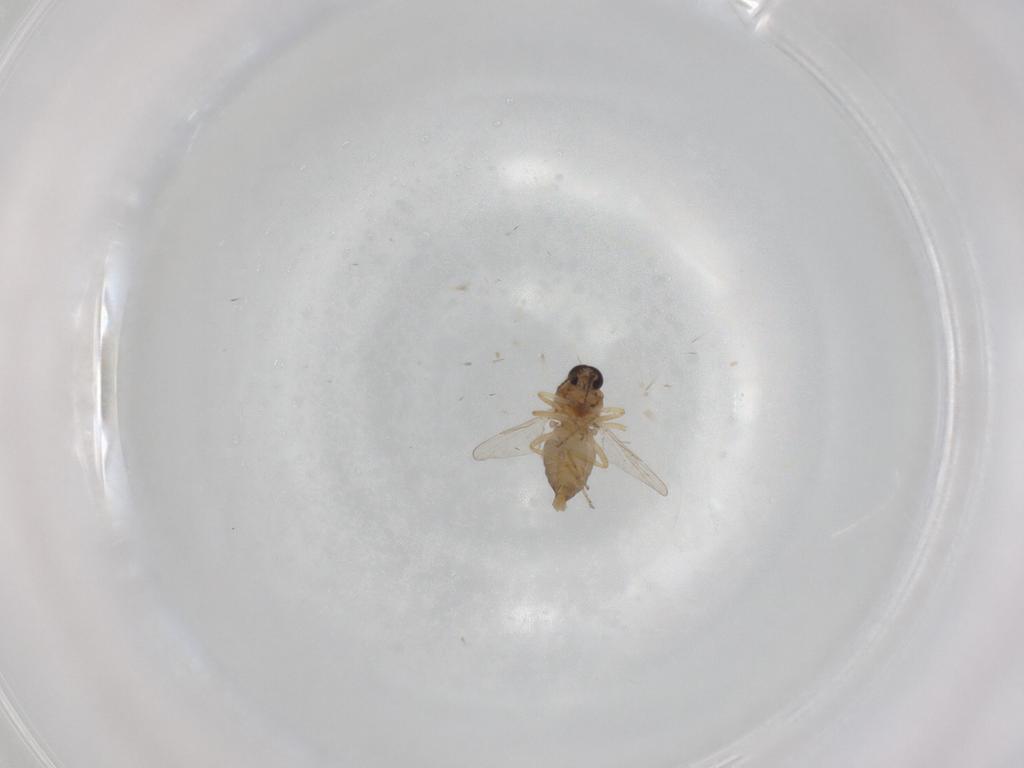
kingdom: Animalia
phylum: Arthropoda
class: Insecta
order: Diptera
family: Ceratopogonidae
